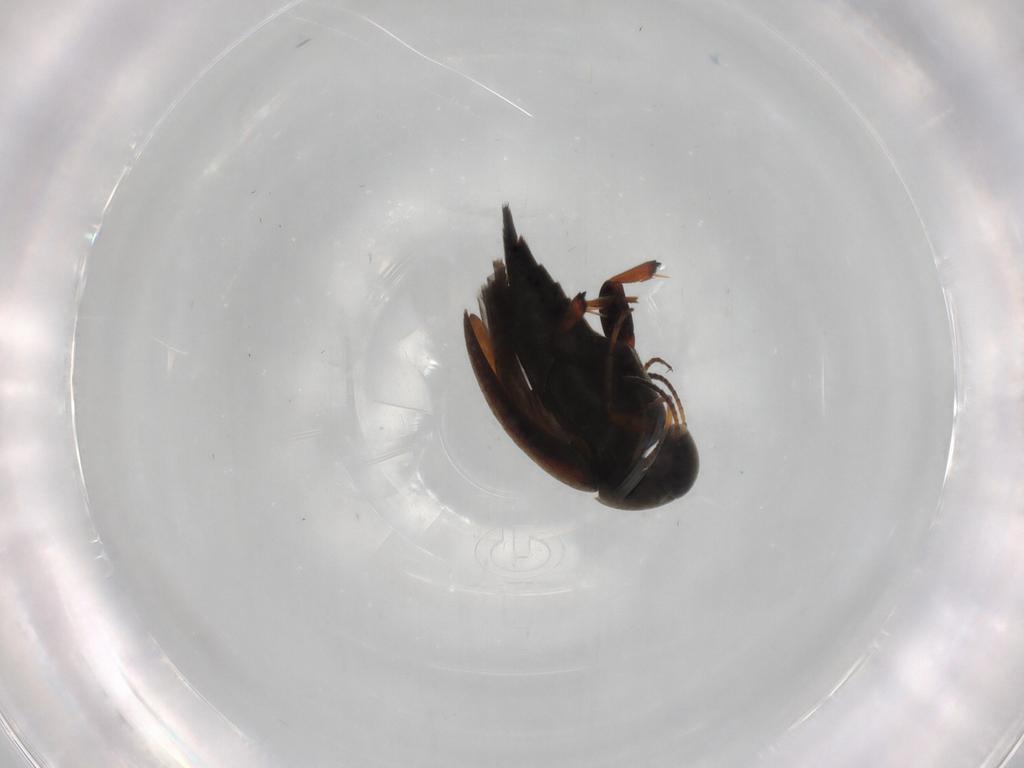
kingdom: Animalia
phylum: Arthropoda
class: Insecta
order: Coleoptera
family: Mordellidae
